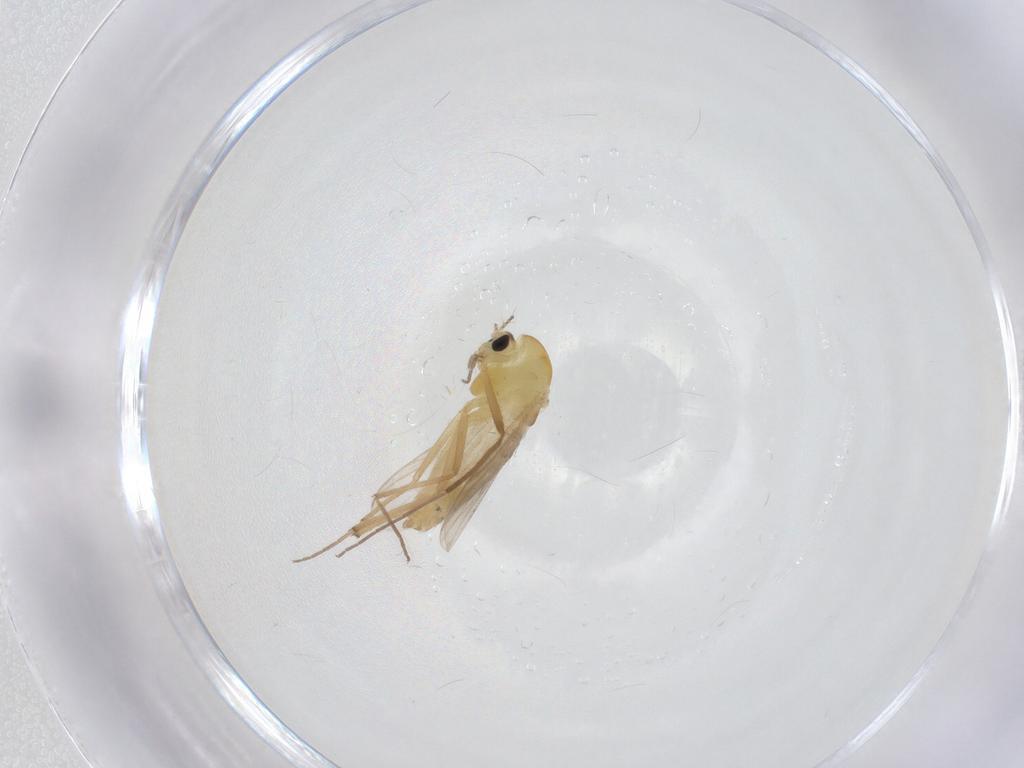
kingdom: Animalia
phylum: Arthropoda
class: Insecta
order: Diptera
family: Chironomidae
